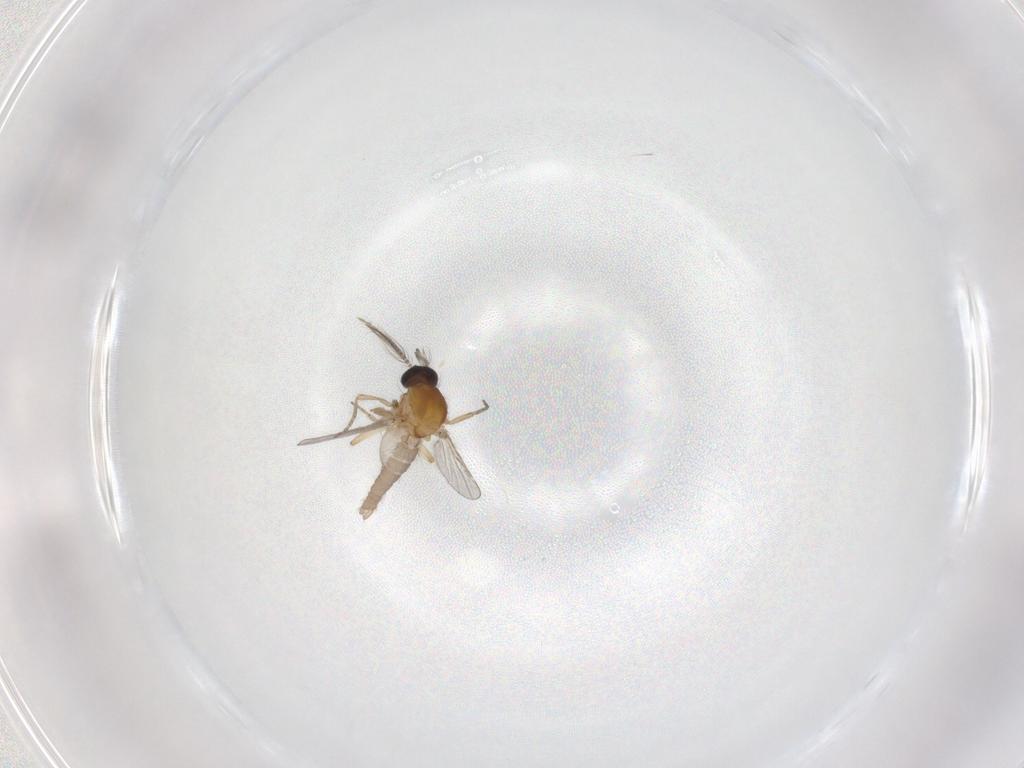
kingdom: Animalia
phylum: Arthropoda
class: Insecta
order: Diptera
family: Ceratopogonidae
